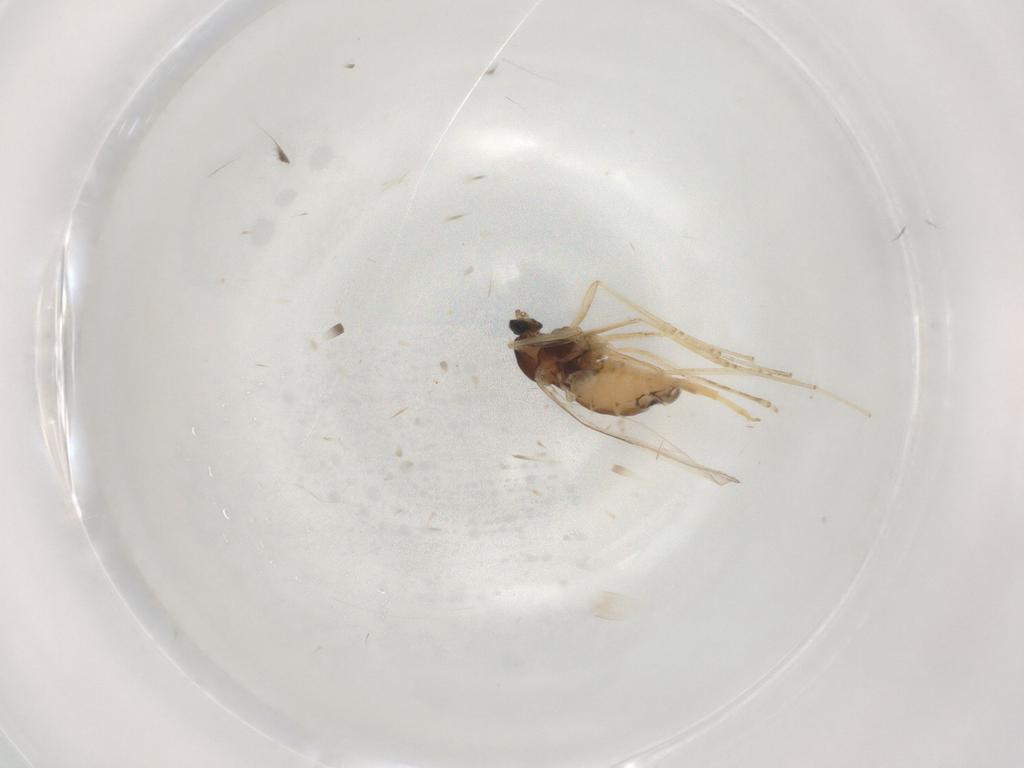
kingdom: Animalia
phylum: Arthropoda
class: Insecta
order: Diptera
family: Cecidomyiidae
